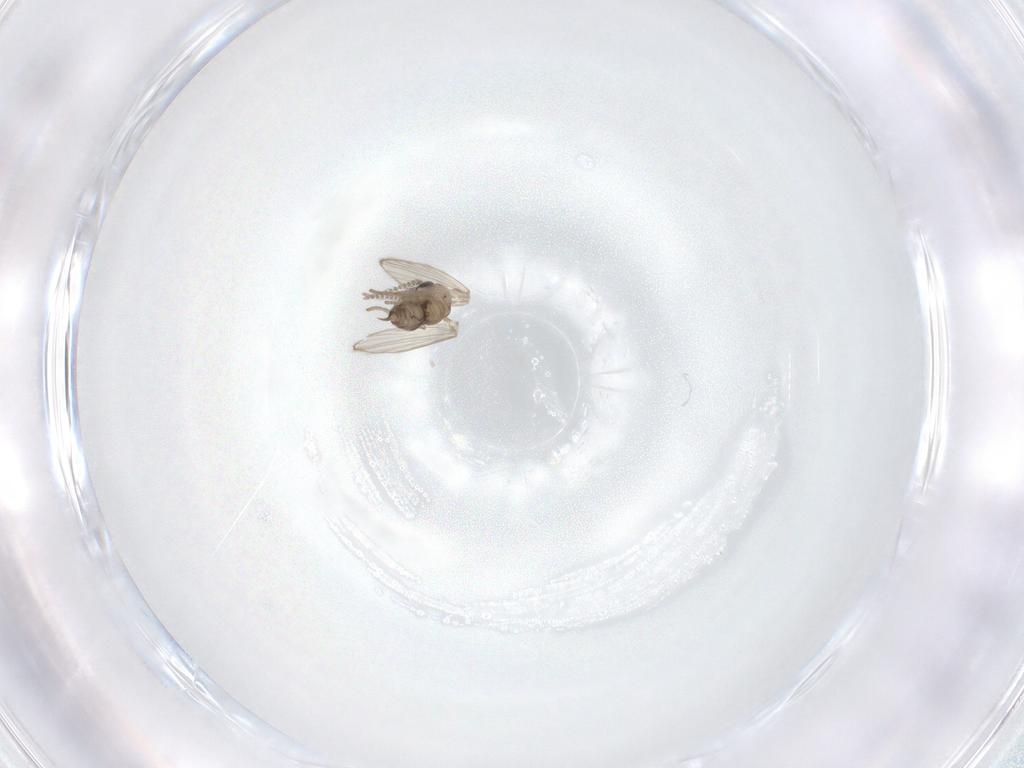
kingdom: Animalia
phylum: Arthropoda
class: Insecta
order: Diptera
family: Psychodidae
